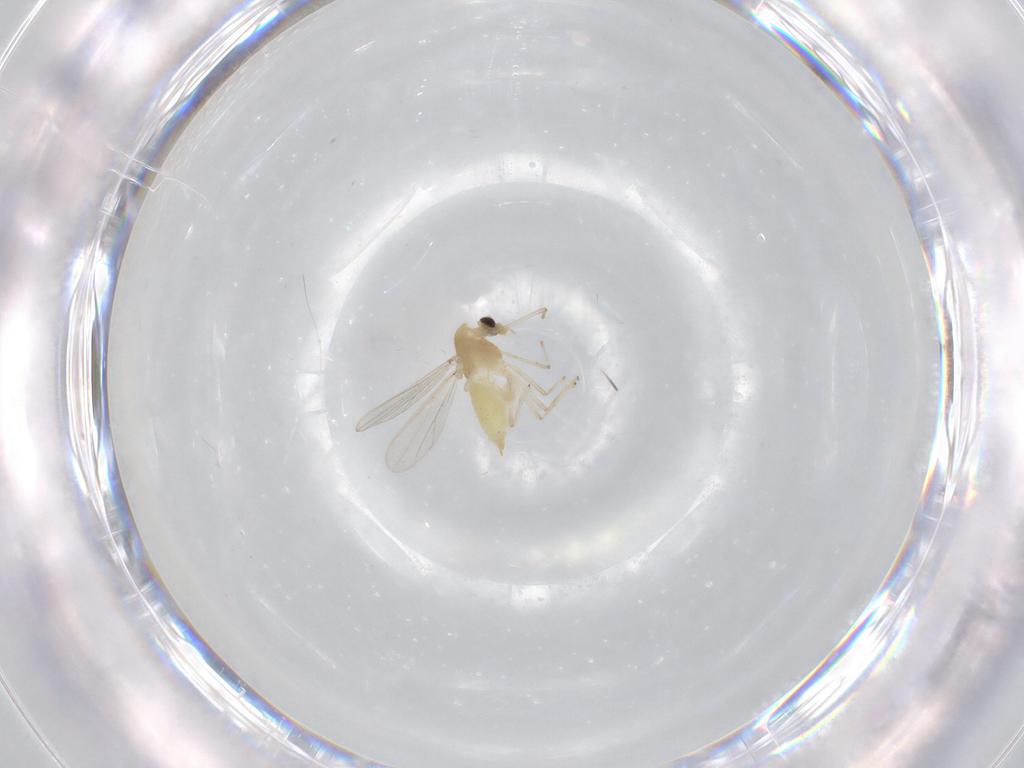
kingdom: Animalia
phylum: Arthropoda
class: Insecta
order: Diptera
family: Chironomidae
